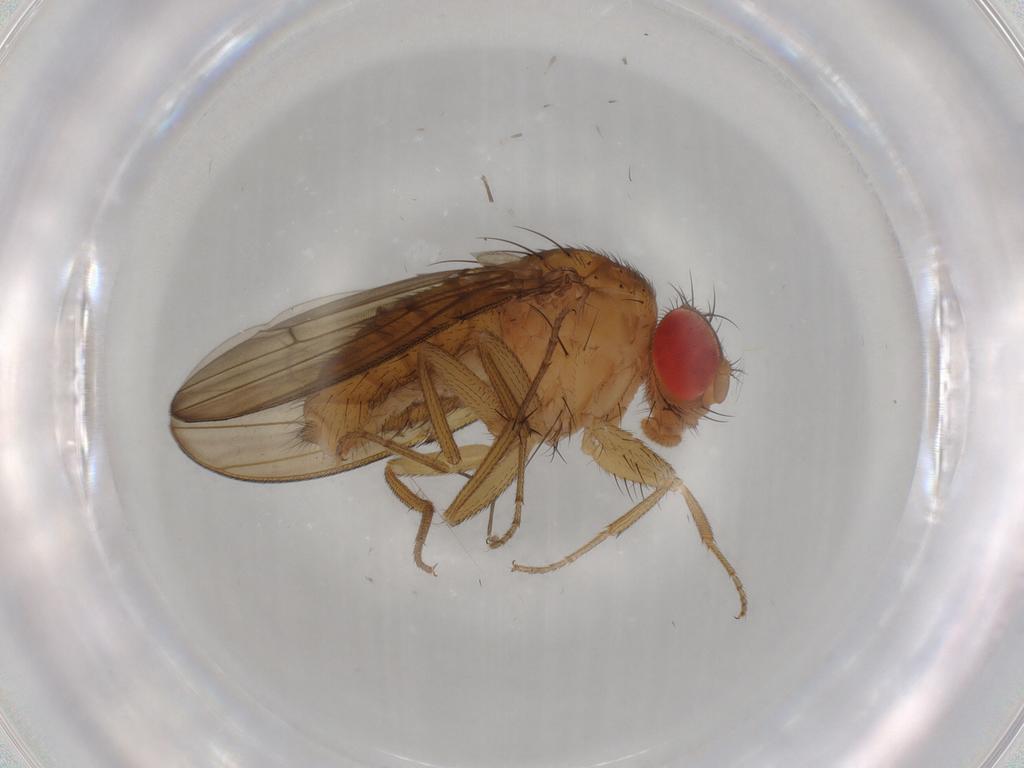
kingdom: Animalia
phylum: Arthropoda
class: Insecta
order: Diptera
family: Drosophilidae
